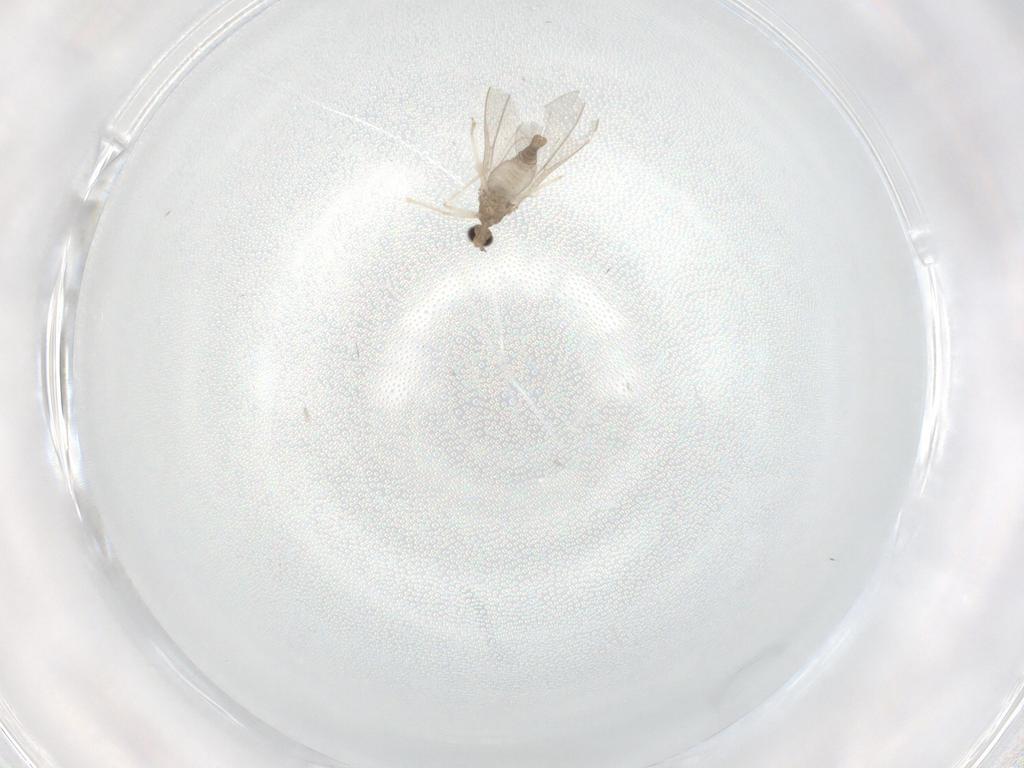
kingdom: Animalia
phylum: Arthropoda
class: Insecta
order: Diptera
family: Cecidomyiidae
